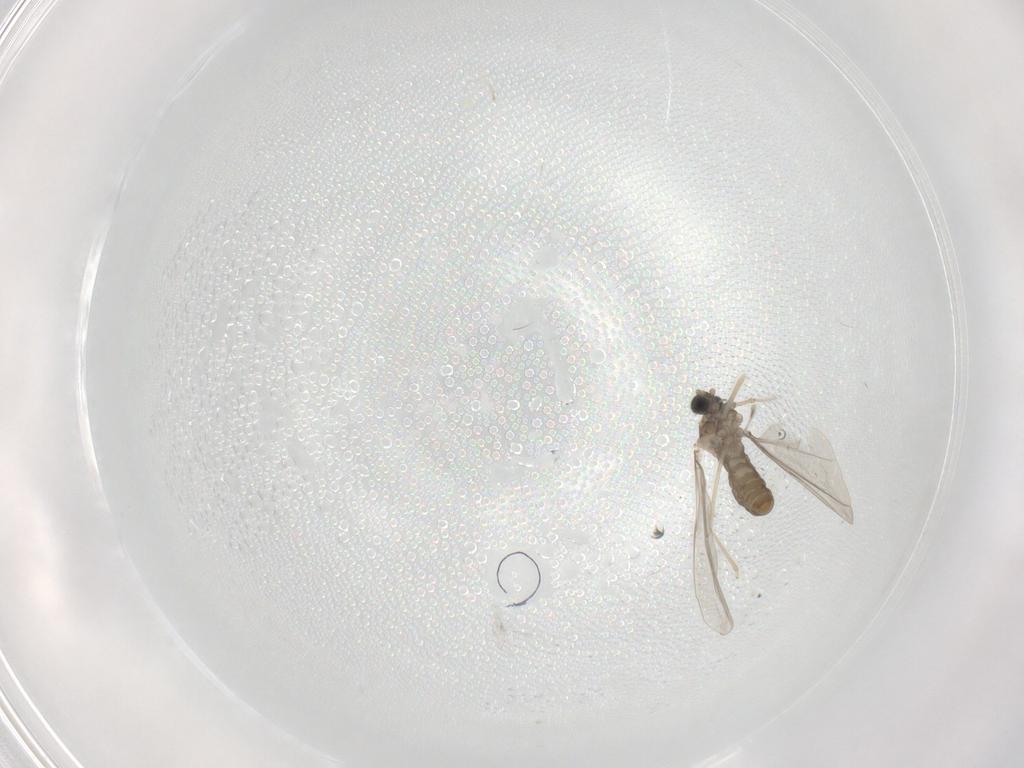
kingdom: Animalia
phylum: Arthropoda
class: Insecta
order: Diptera
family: Cecidomyiidae
